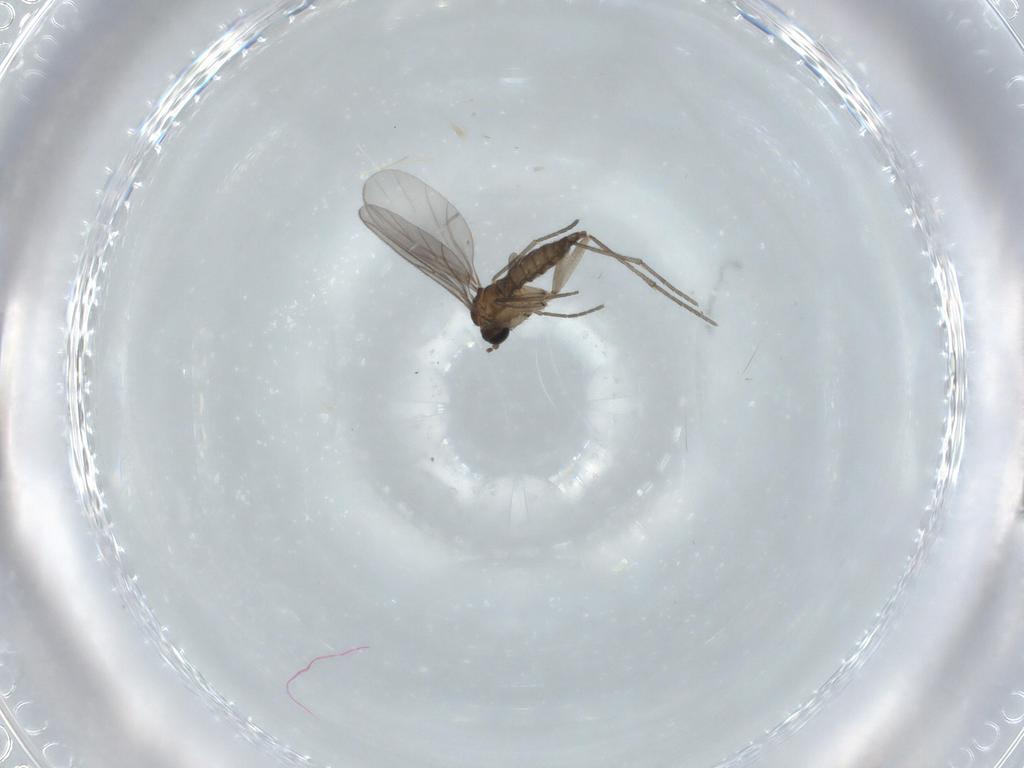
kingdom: Animalia
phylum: Arthropoda
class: Insecta
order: Diptera
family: Sciaridae
